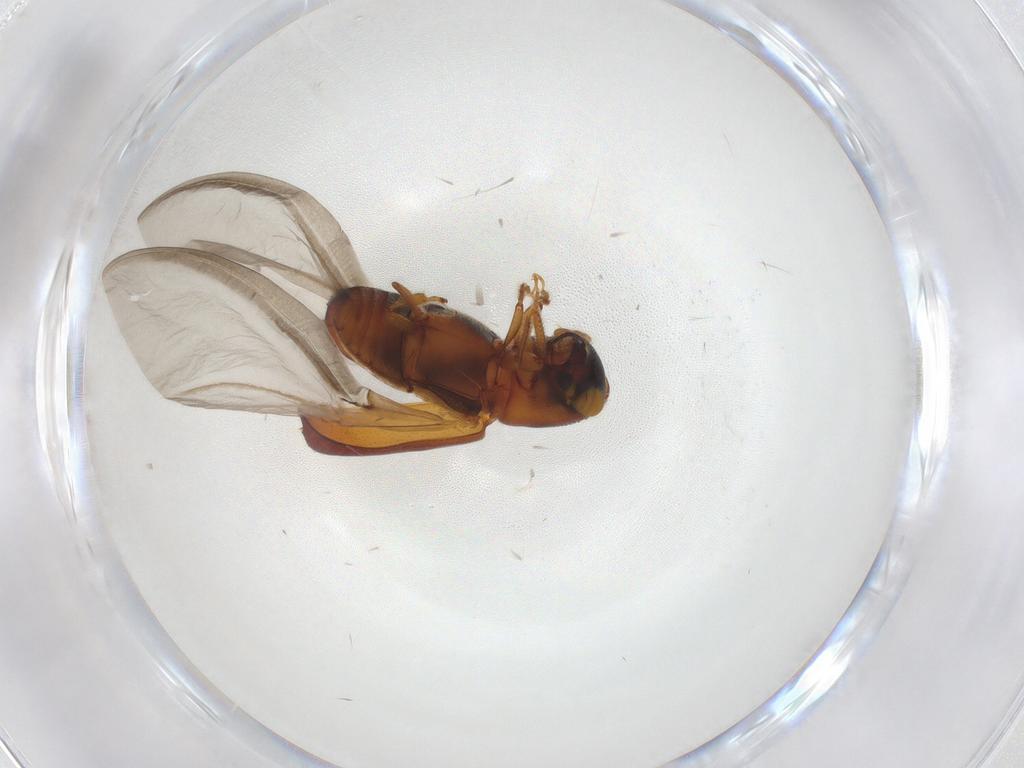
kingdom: Animalia
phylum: Arthropoda
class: Insecta
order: Coleoptera
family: Curculionidae
